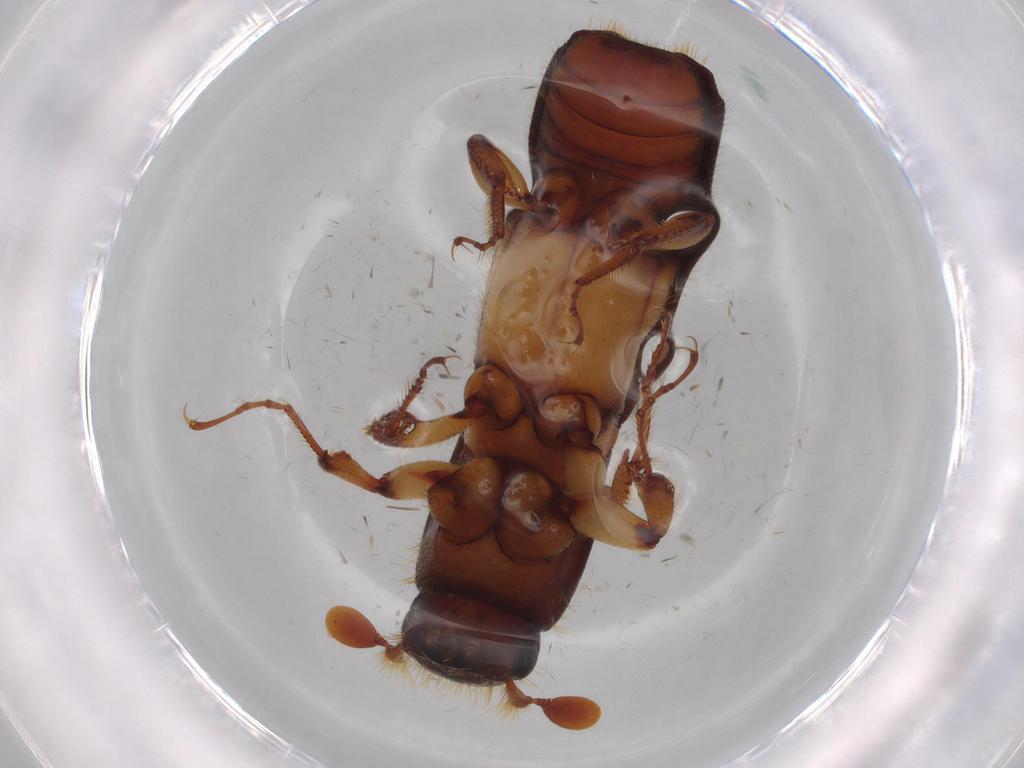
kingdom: Animalia
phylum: Arthropoda
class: Insecta
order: Coleoptera
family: Curculionidae
